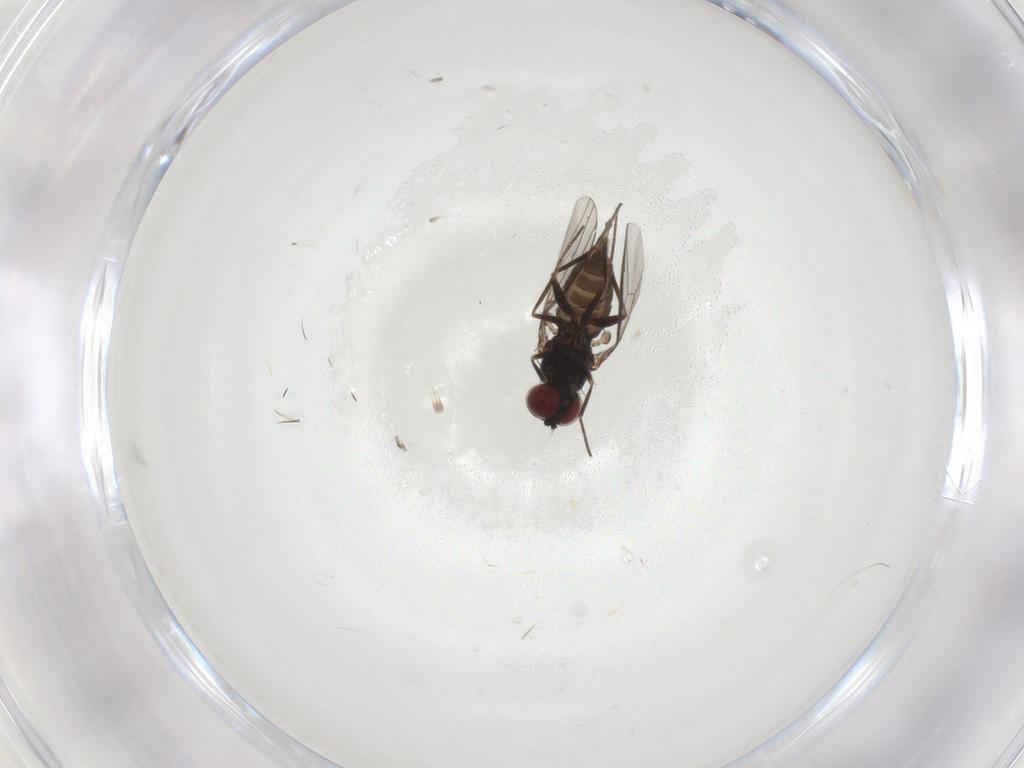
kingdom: Animalia
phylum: Arthropoda
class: Insecta
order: Diptera
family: Dolichopodidae
